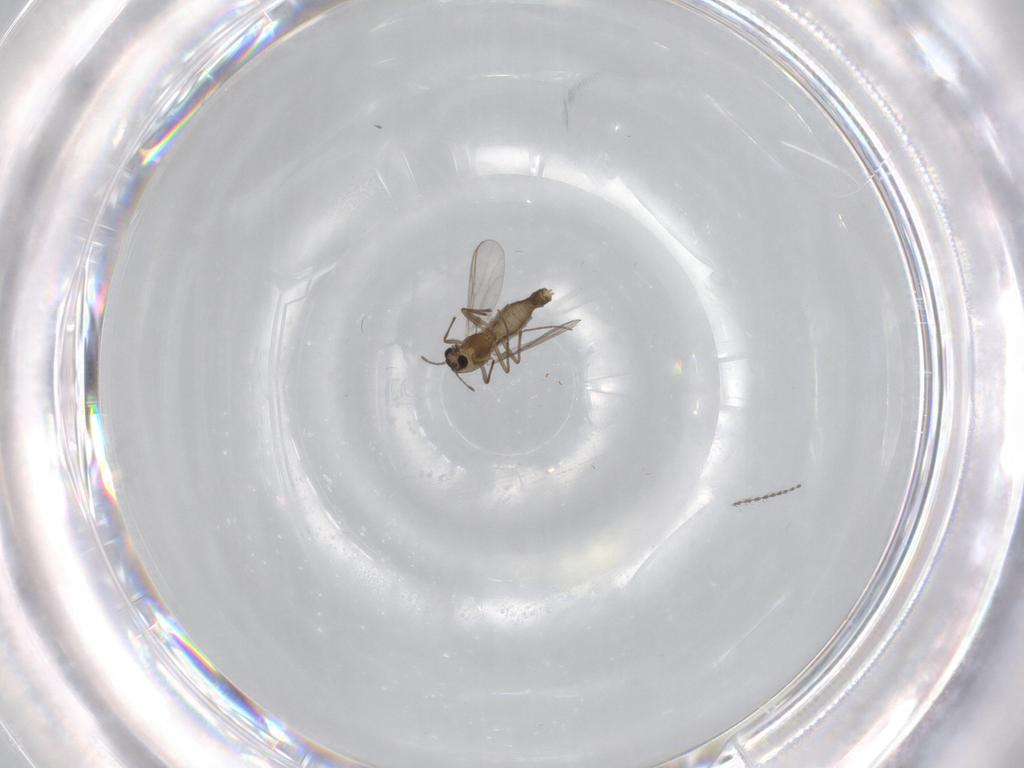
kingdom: Animalia
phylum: Arthropoda
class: Insecta
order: Diptera
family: Chironomidae
